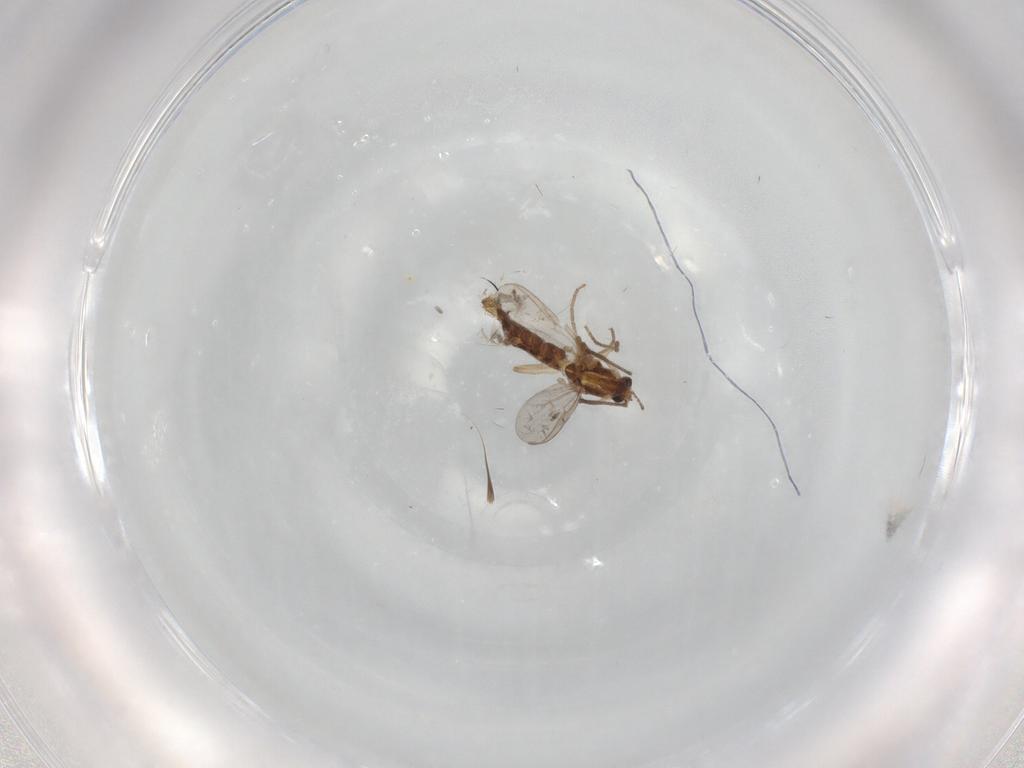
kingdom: Animalia
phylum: Arthropoda
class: Insecta
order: Diptera
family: Chironomidae
